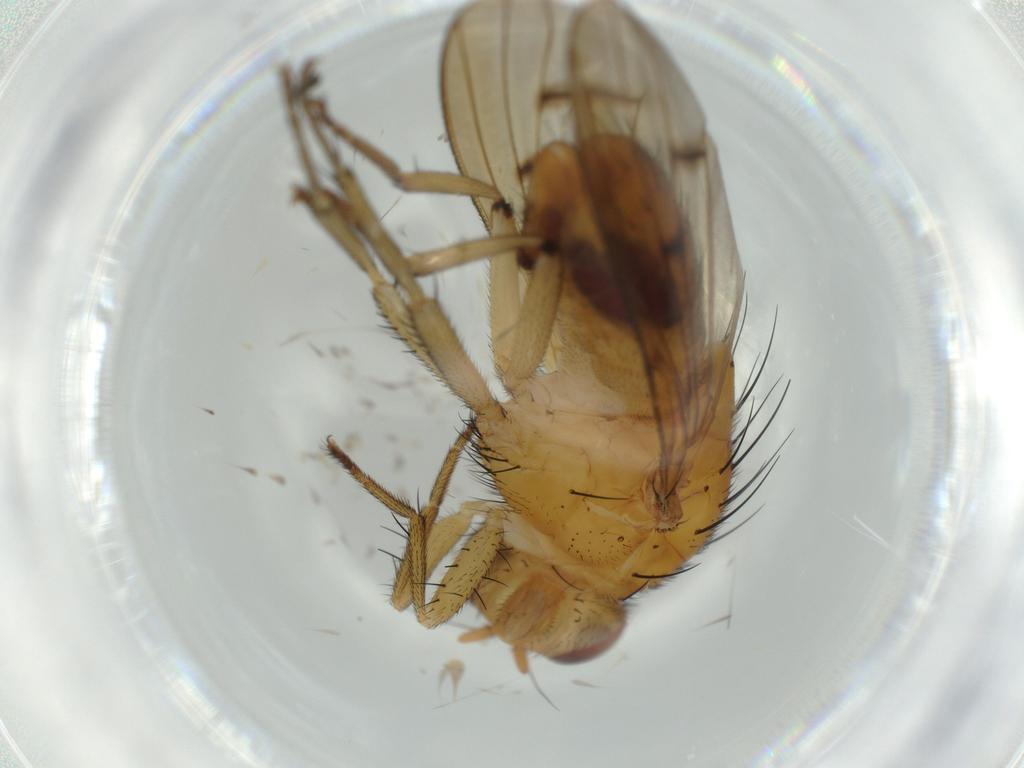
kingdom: Animalia
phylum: Arthropoda
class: Insecta
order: Diptera
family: Lauxaniidae
